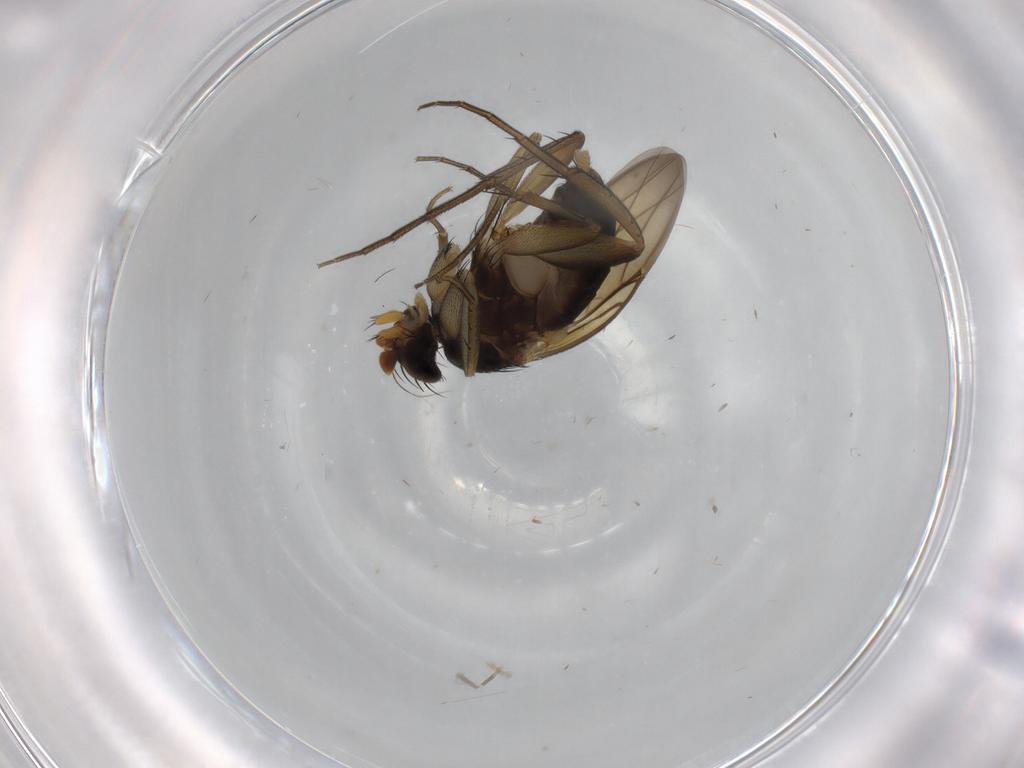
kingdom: Animalia
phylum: Arthropoda
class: Insecta
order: Diptera
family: Phoridae
